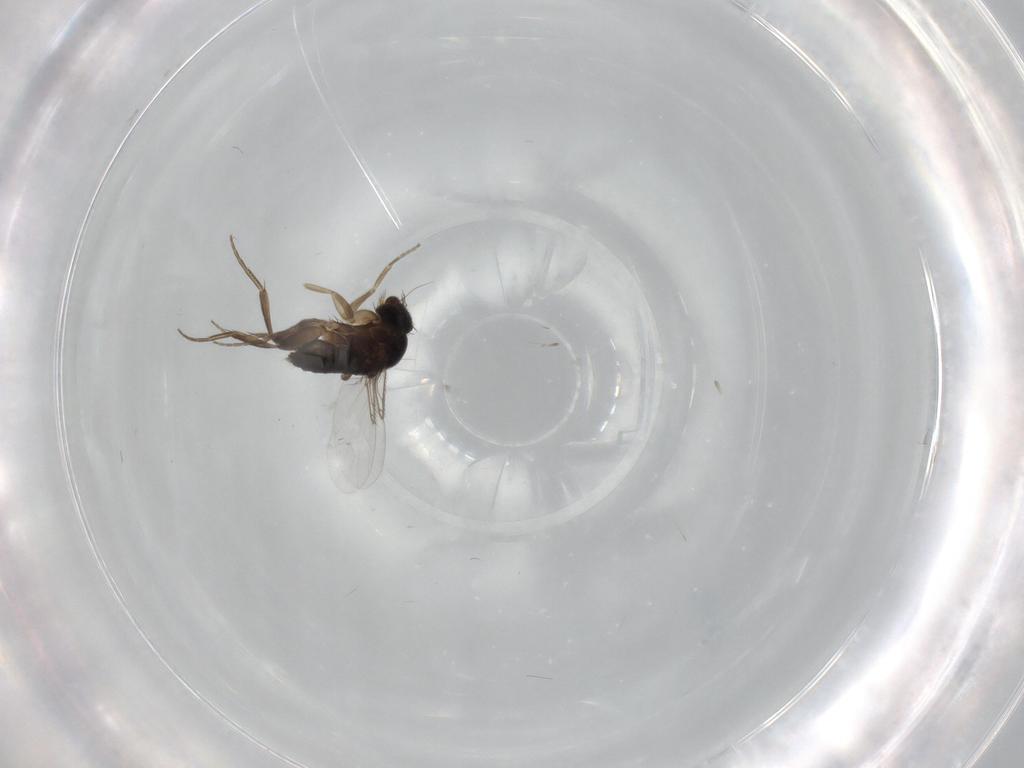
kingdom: Animalia
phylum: Arthropoda
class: Insecta
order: Diptera
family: Phoridae
